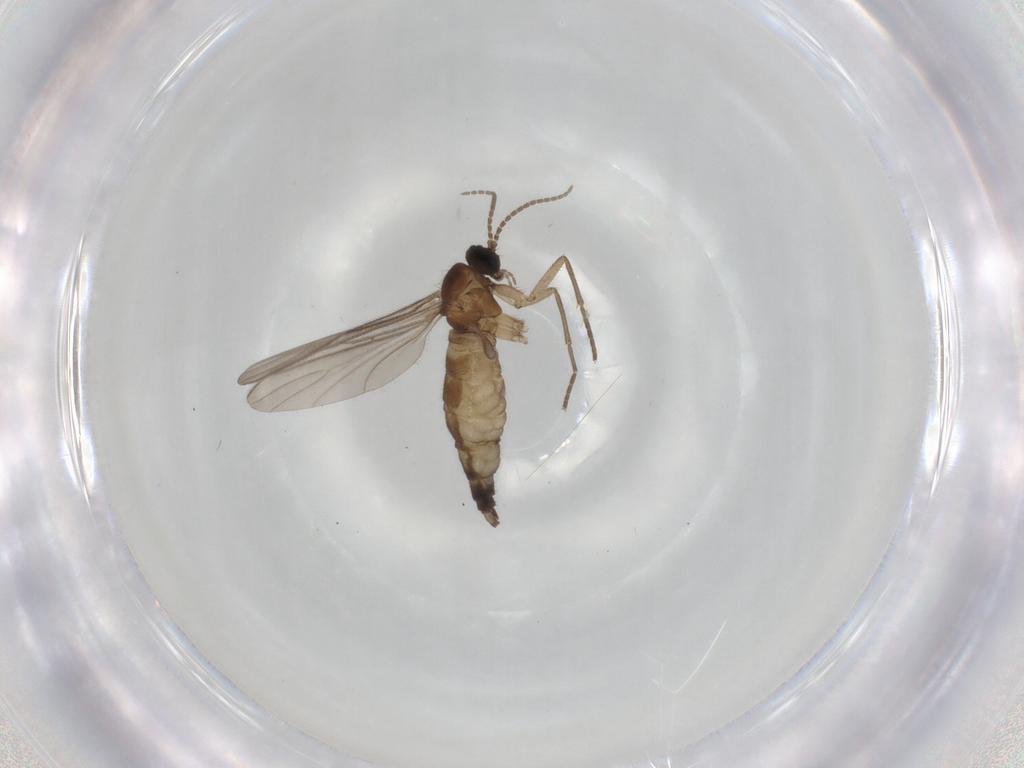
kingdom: Animalia
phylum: Arthropoda
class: Insecta
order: Diptera
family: Sciaridae
